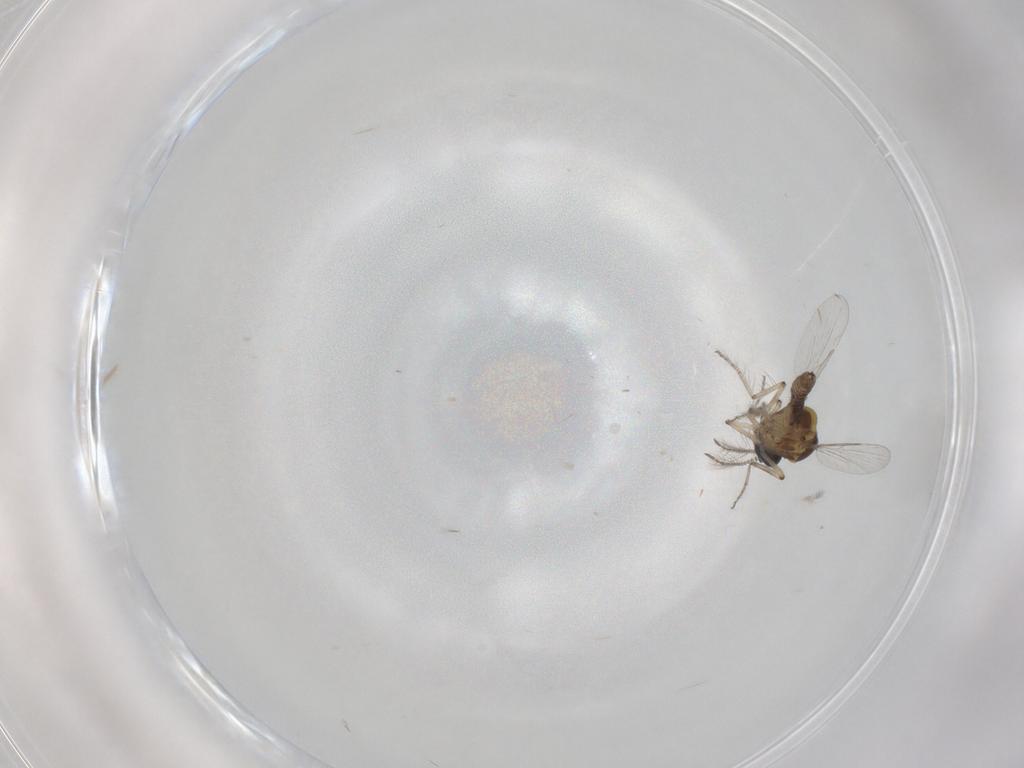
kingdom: Animalia
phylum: Arthropoda
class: Insecta
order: Diptera
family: Ceratopogonidae
